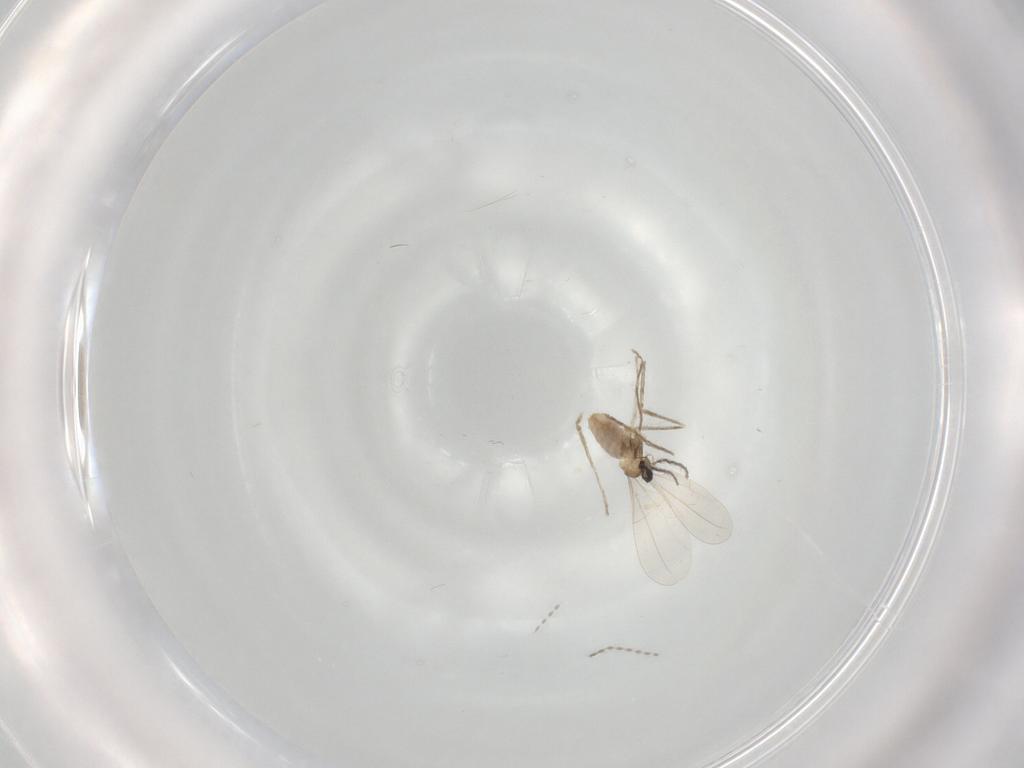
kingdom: Animalia
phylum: Arthropoda
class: Insecta
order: Diptera
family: Cecidomyiidae
